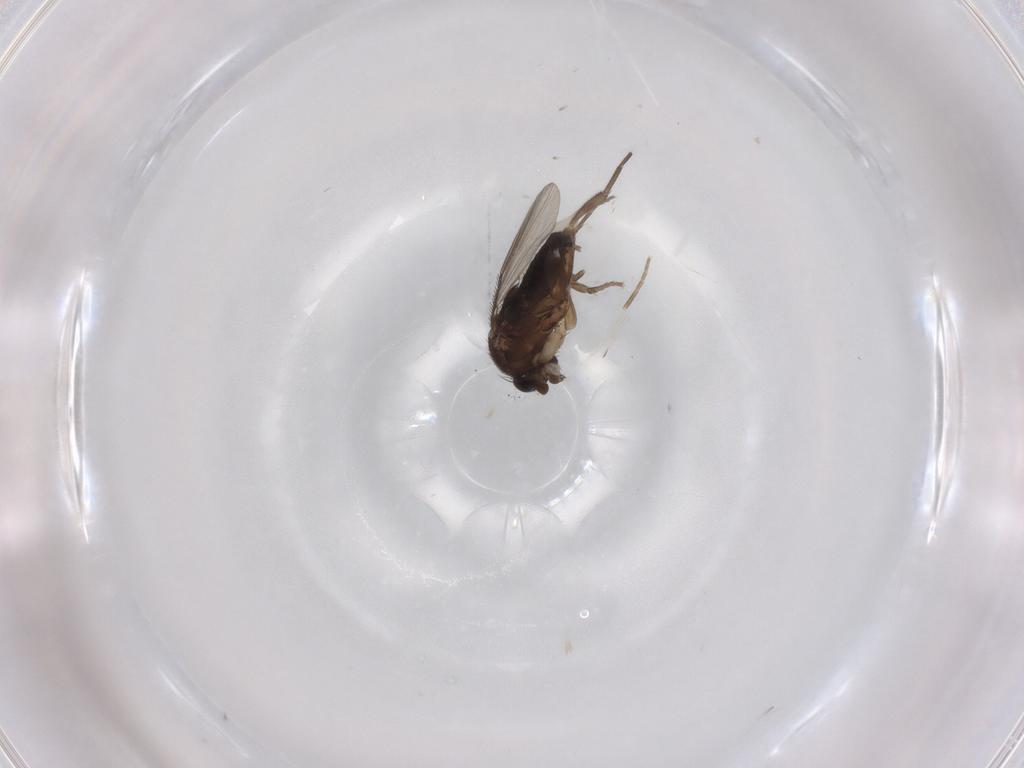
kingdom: Animalia
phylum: Arthropoda
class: Insecta
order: Diptera
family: Phoridae
